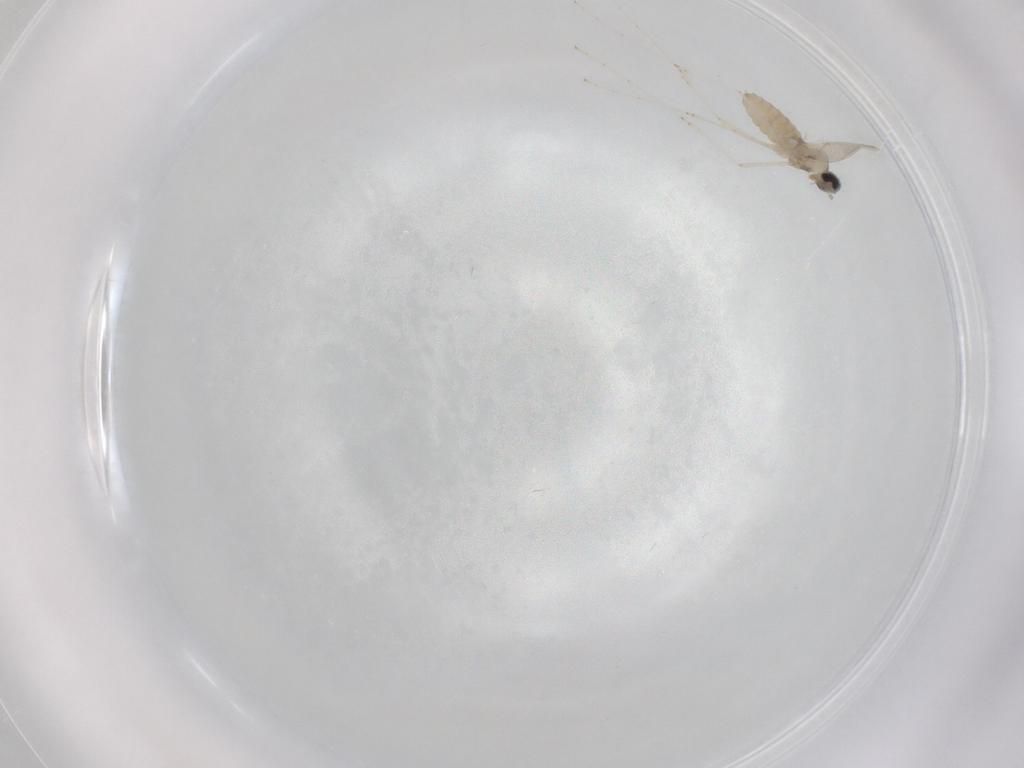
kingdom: Animalia
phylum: Arthropoda
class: Insecta
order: Diptera
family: Cecidomyiidae
